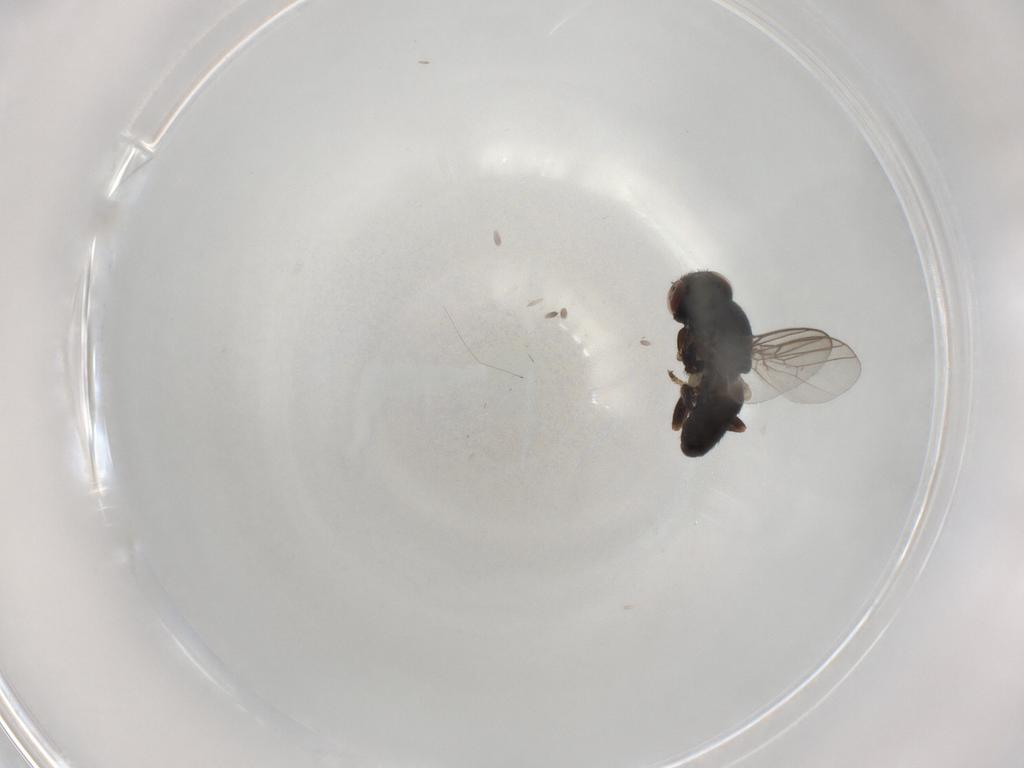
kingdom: Animalia
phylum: Arthropoda
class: Insecta
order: Diptera
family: Chloropidae
